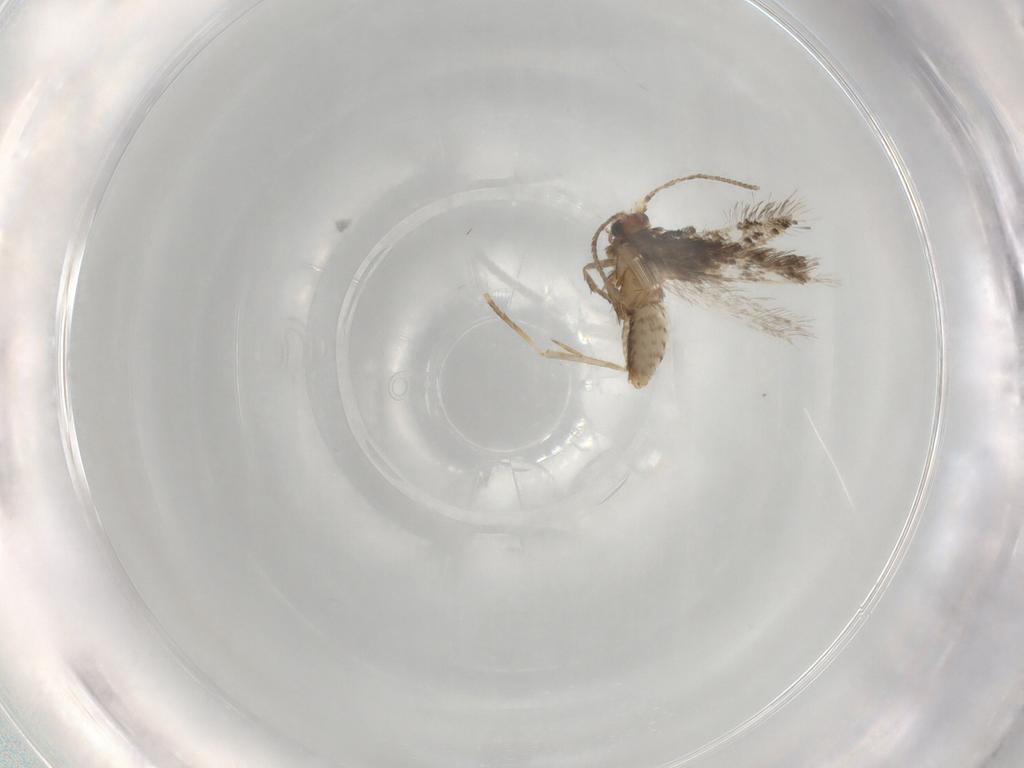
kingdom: Animalia
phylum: Arthropoda
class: Insecta
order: Lepidoptera
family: Nepticulidae
